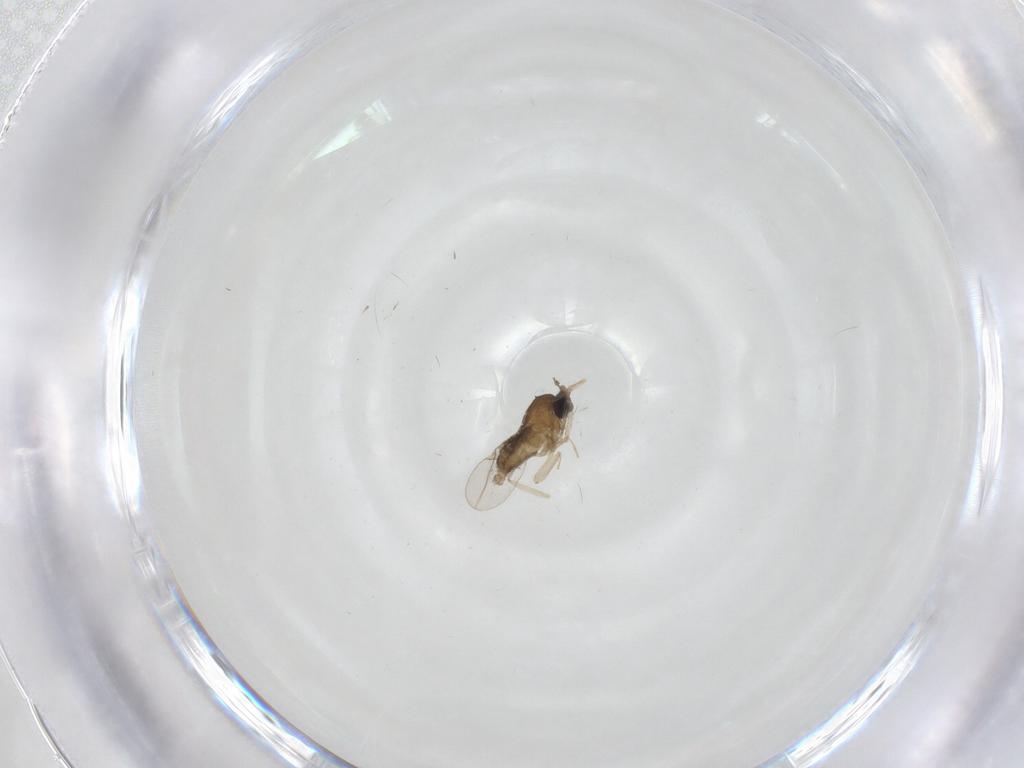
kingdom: Animalia
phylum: Arthropoda
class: Insecta
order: Diptera
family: Cecidomyiidae
